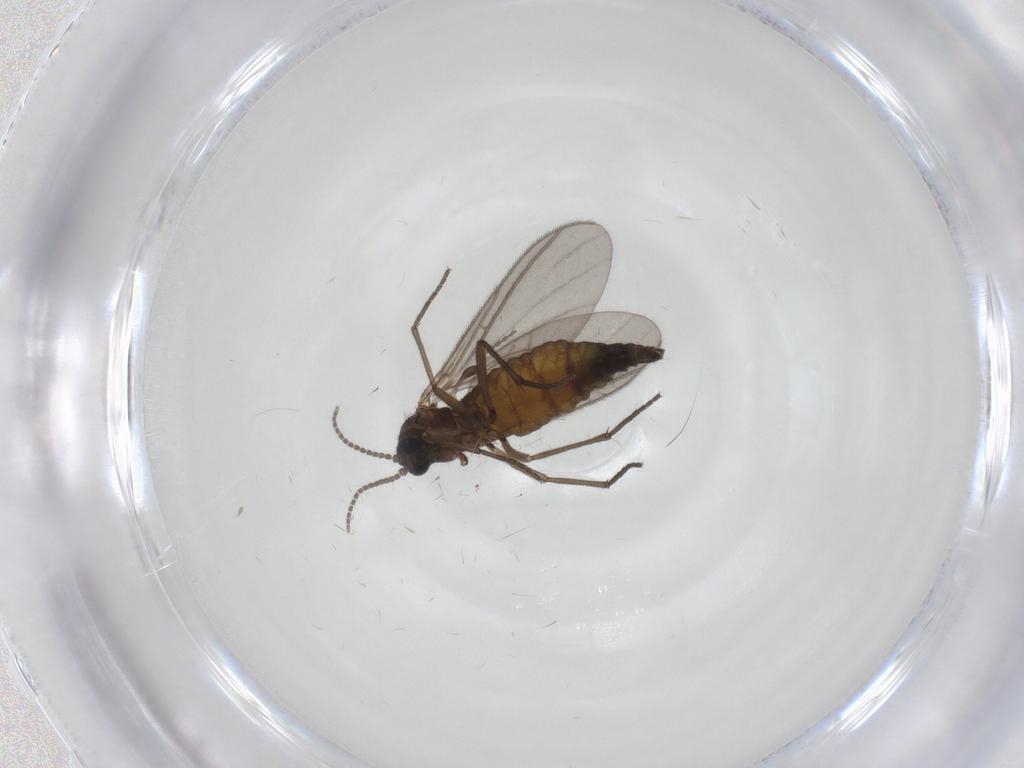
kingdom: Animalia
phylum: Arthropoda
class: Insecta
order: Diptera
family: Sciaridae
